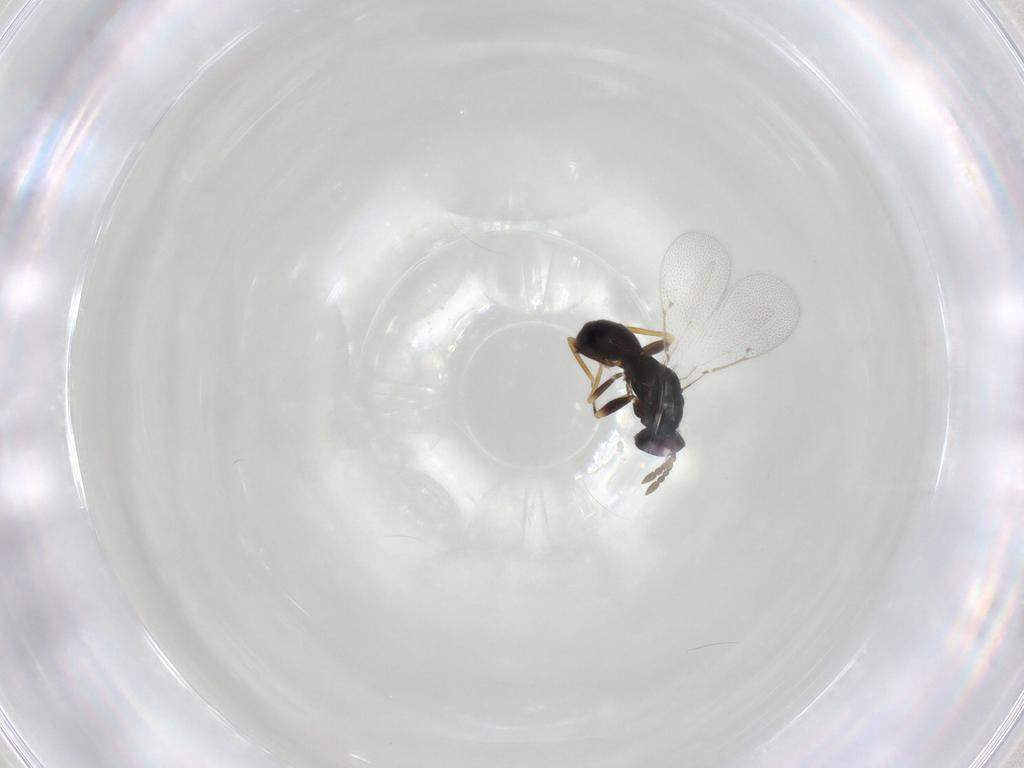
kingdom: Animalia
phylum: Arthropoda
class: Insecta
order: Hymenoptera
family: Eulophidae
